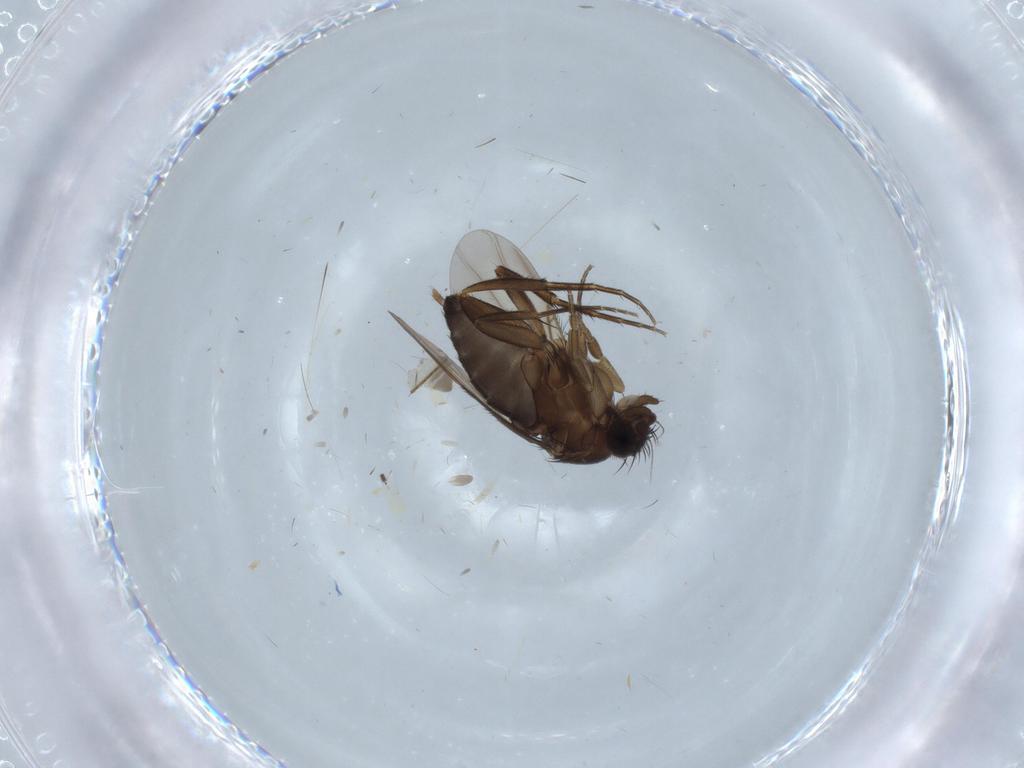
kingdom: Animalia
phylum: Arthropoda
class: Insecta
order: Diptera
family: Phoridae
